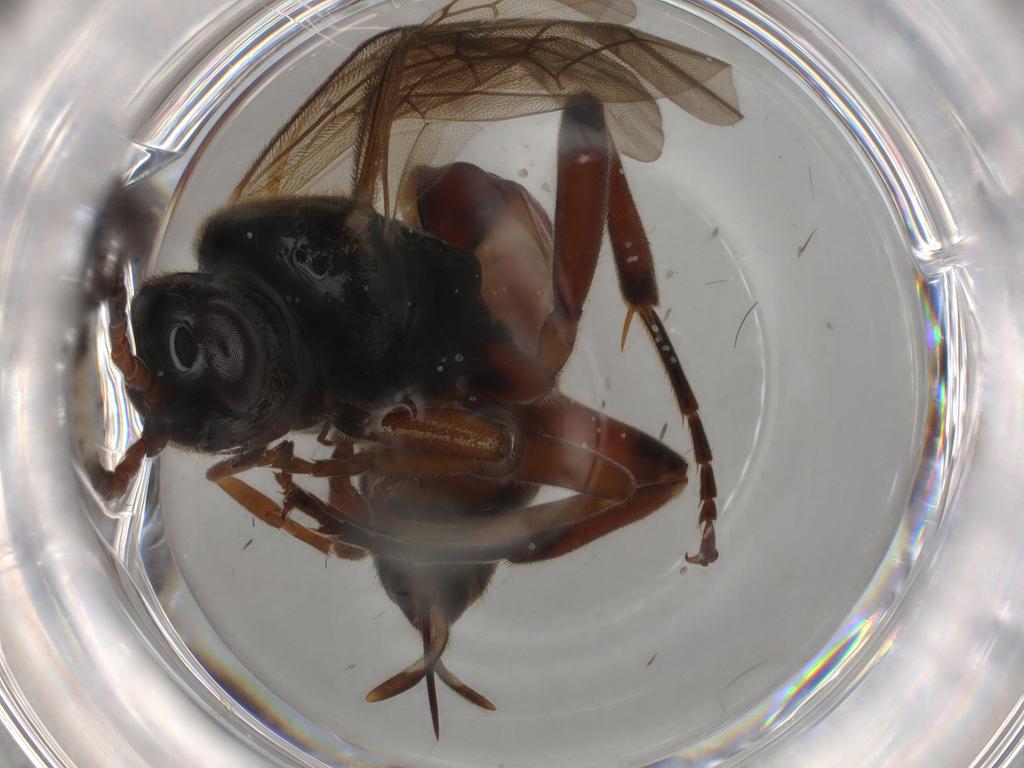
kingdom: Animalia
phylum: Arthropoda
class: Insecta
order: Hymenoptera
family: Ichneumonidae
